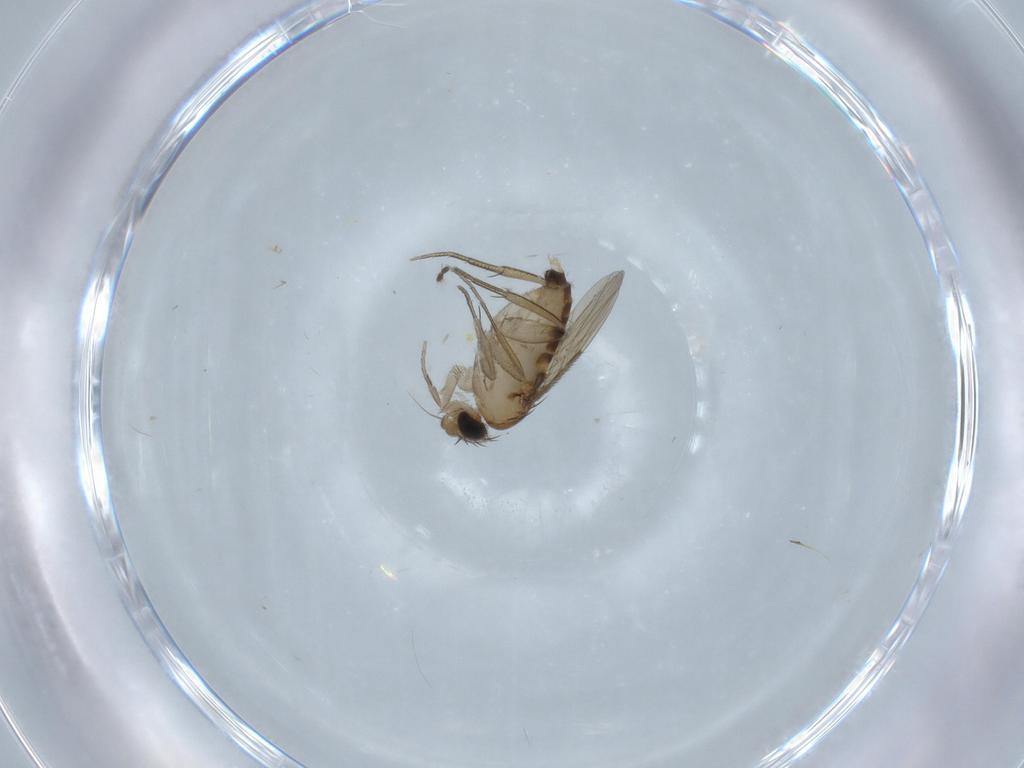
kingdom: Animalia
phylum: Arthropoda
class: Insecta
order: Diptera
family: Phoridae
